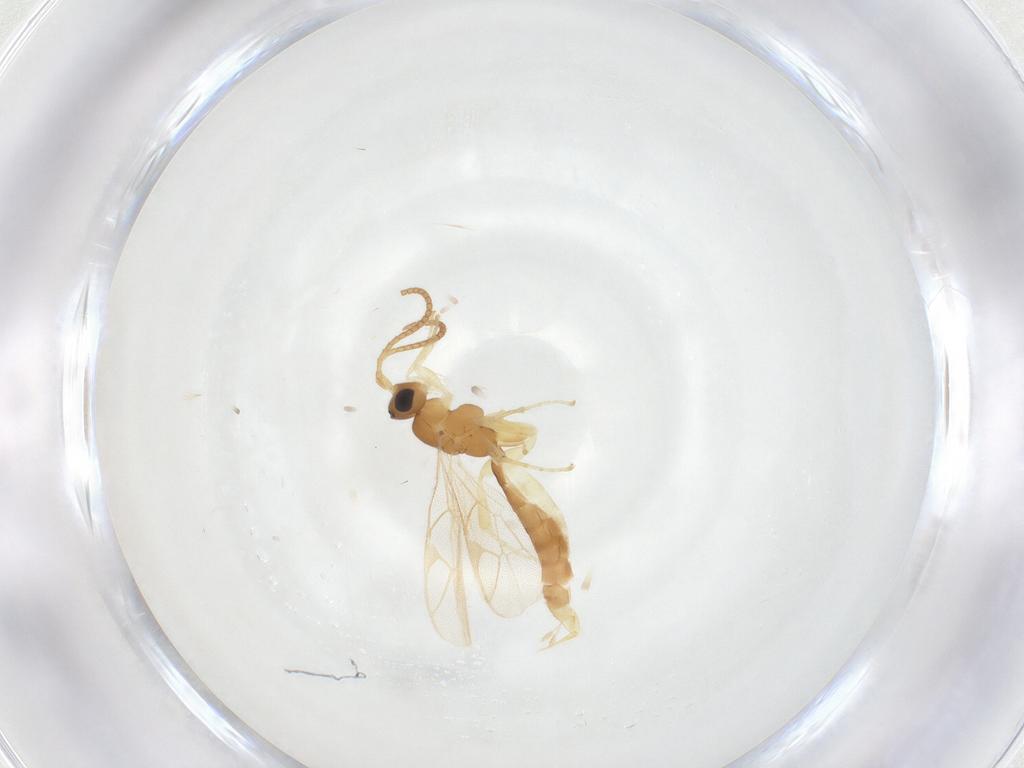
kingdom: Animalia
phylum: Arthropoda
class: Insecta
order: Hymenoptera
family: Ichneumonidae
